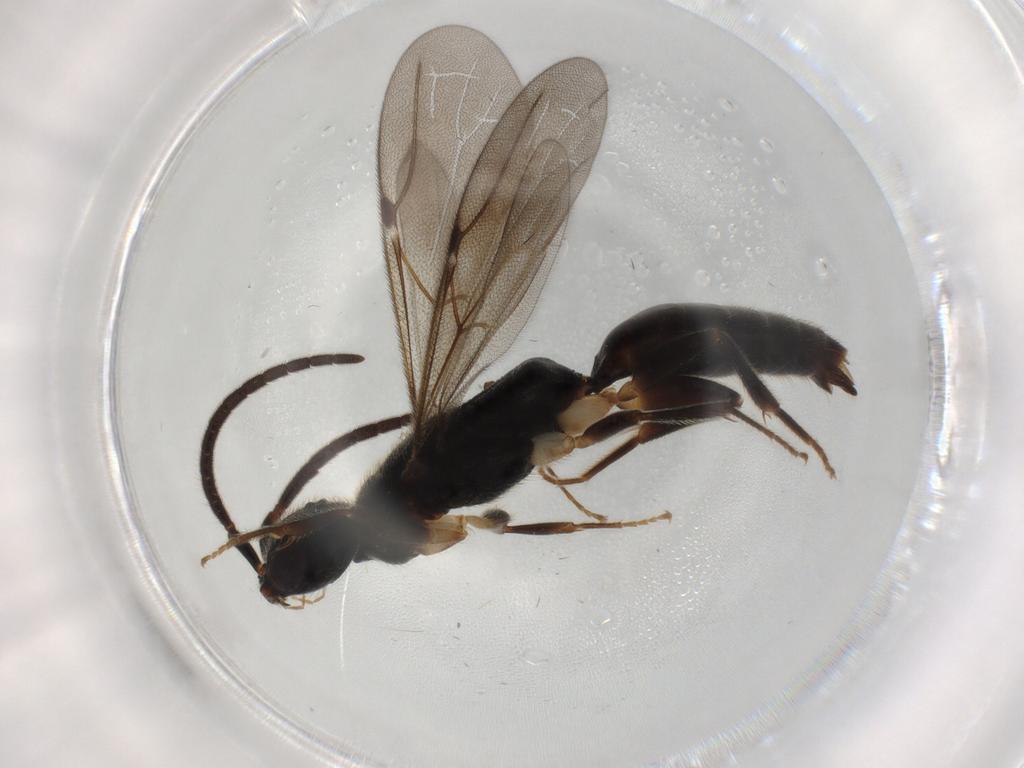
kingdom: Animalia
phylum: Arthropoda
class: Insecta
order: Hymenoptera
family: Bethylidae
